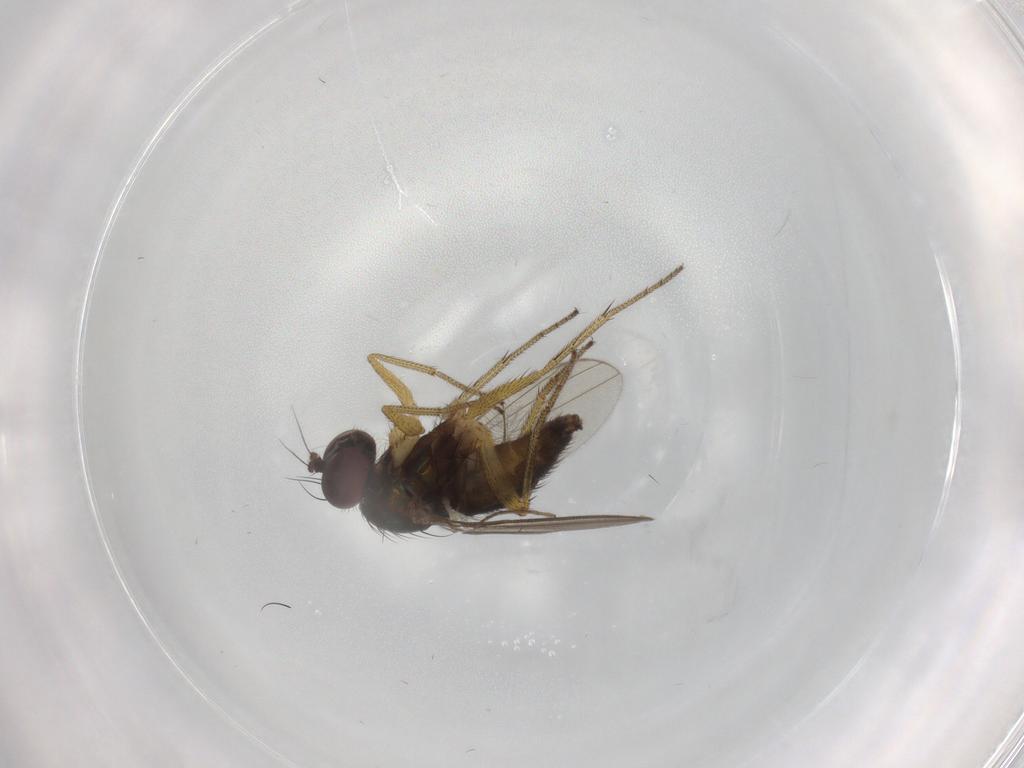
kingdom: Animalia
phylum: Arthropoda
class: Insecta
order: Diptera
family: Chironomidae
